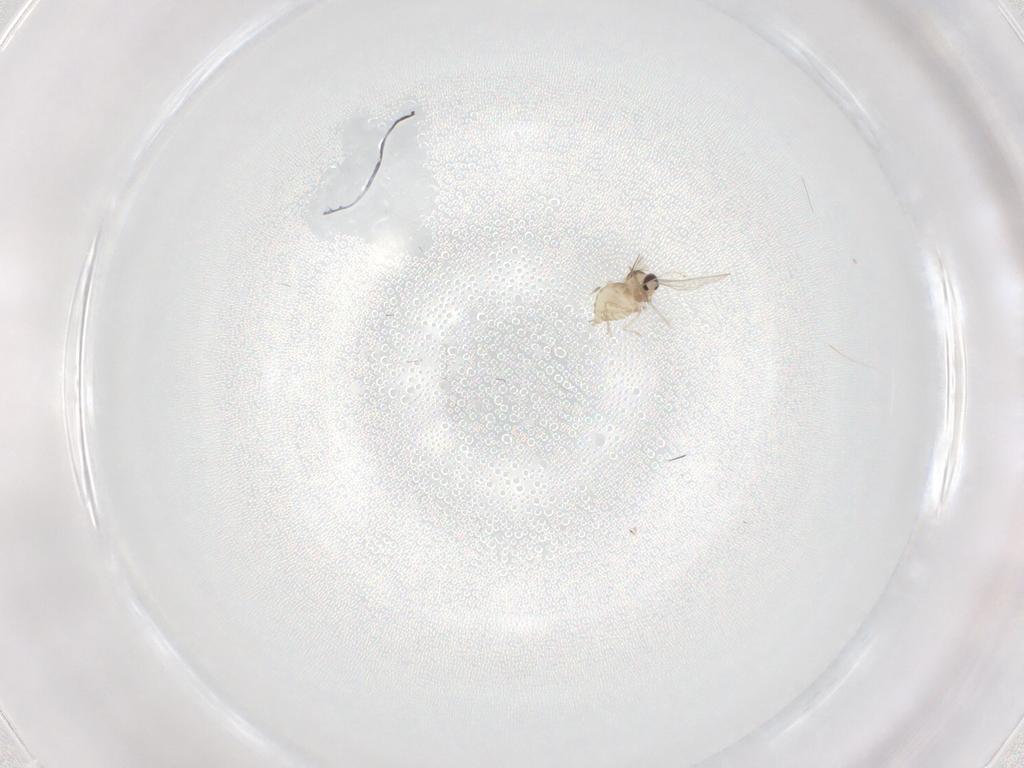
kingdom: Animalia
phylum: Arthropoda
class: Insecta
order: Diptera
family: Cecidomyiidae
